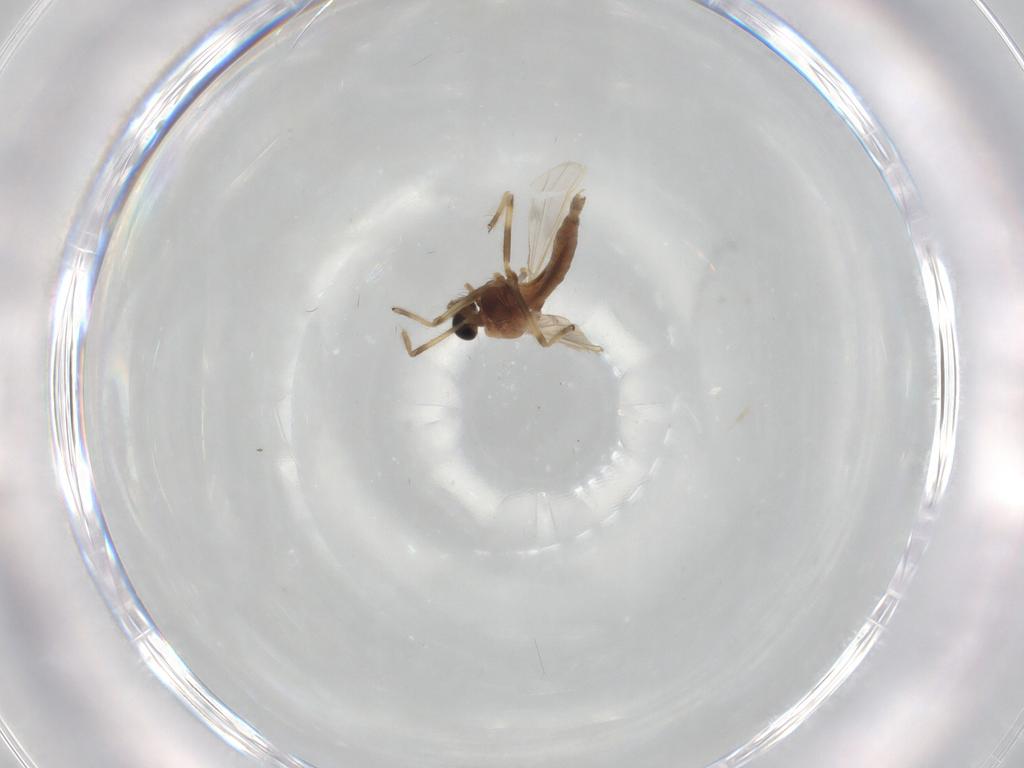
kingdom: Animalia
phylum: Arthropoda
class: Insecta
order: Diptera
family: Chironomidae
